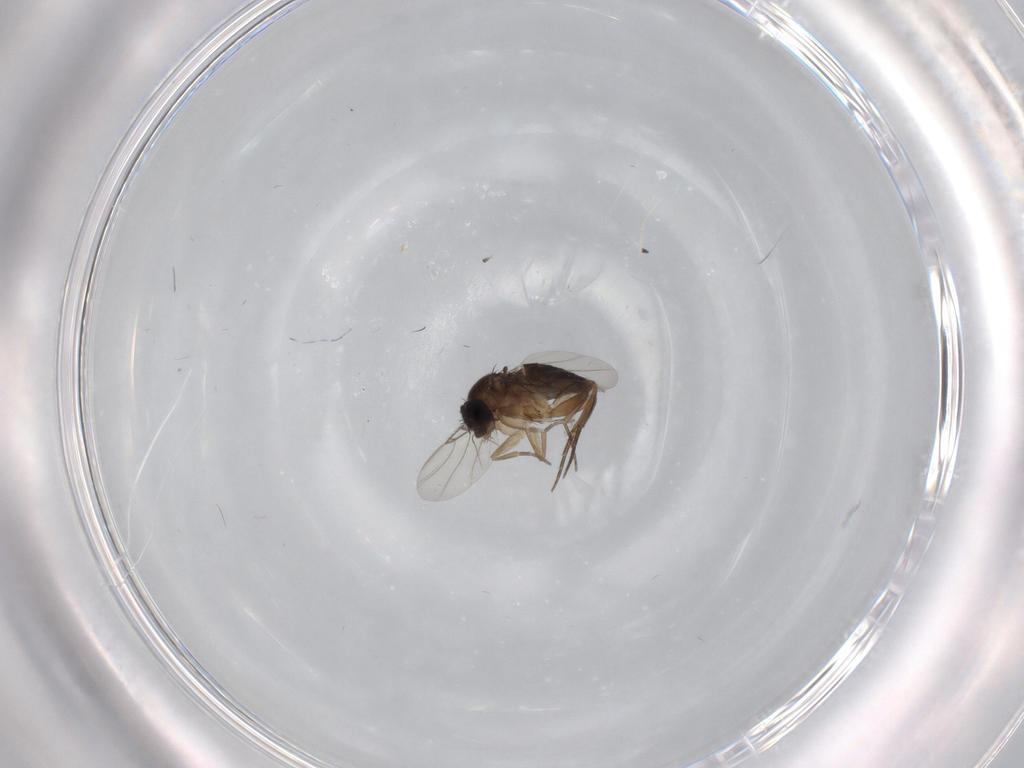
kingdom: Animalia
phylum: Arthropoda
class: Insecta
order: Diptera
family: Phoridae
